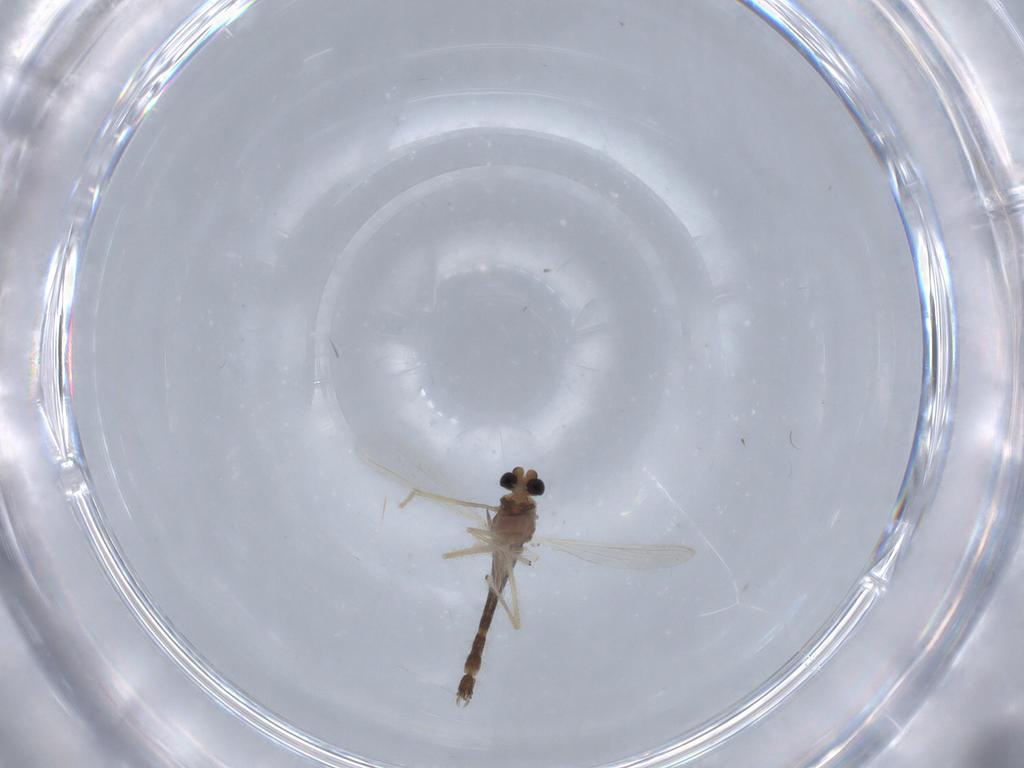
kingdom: Animalia
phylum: Arthropoda
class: Insecta
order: Diptera
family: Chironomidae
